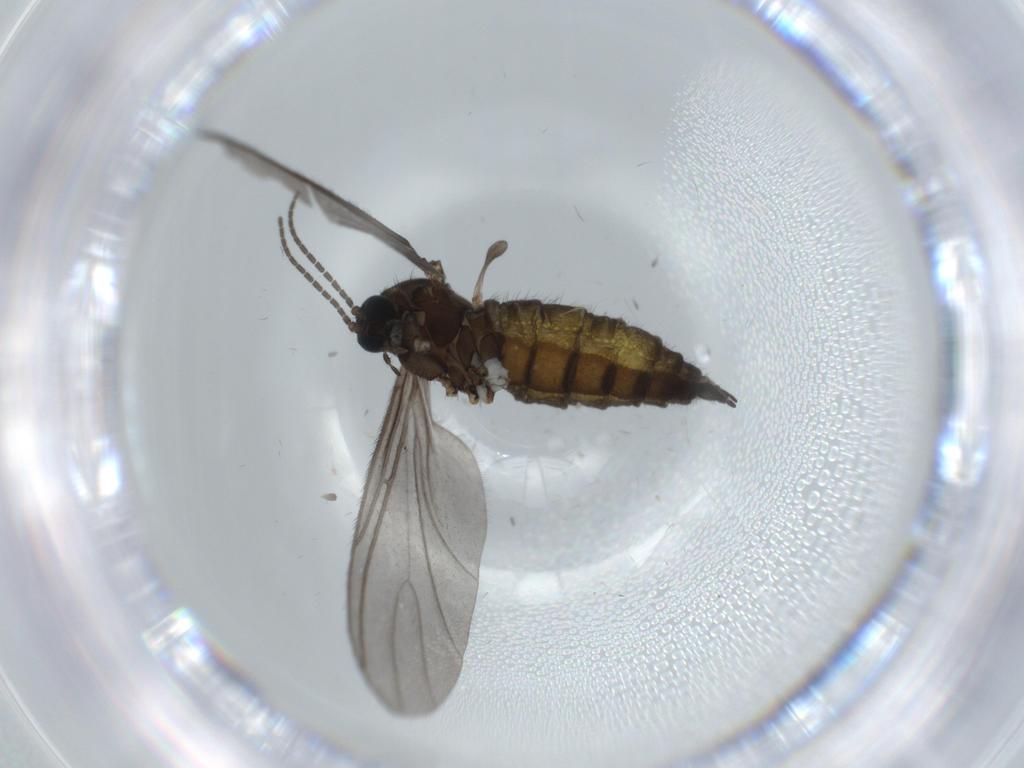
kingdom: Animalia
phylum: Arthropoda
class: Insecta
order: Diptera
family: Sciaridae
